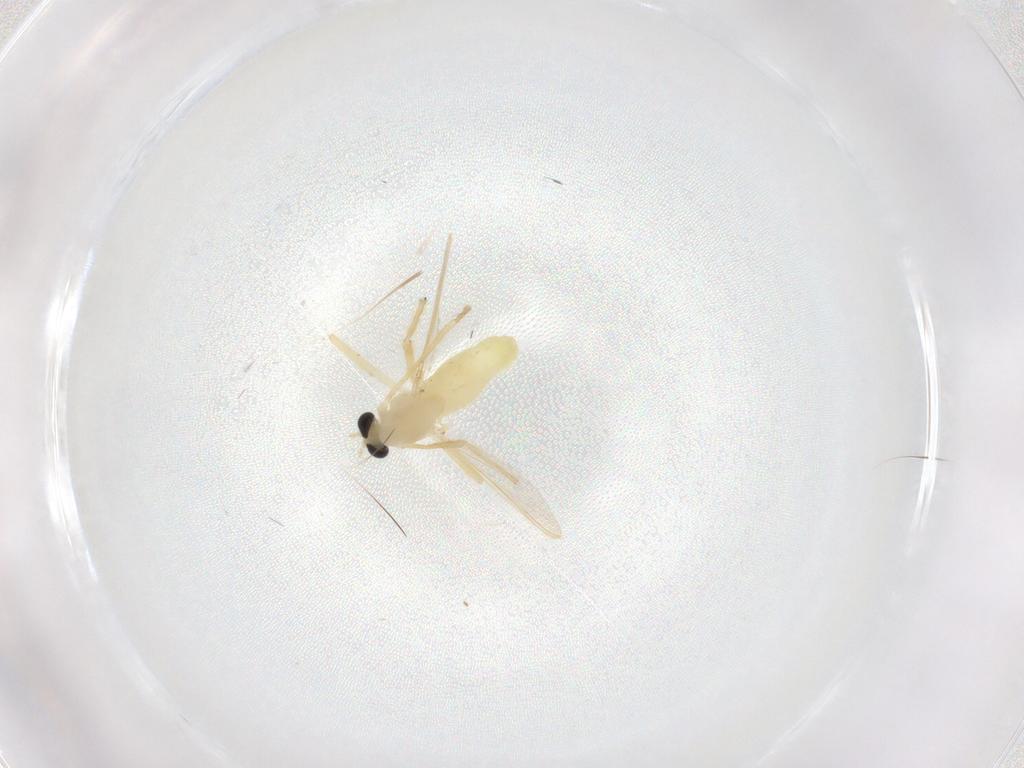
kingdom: Animalia
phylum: Arthropoda
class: Insecta
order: Diptera
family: Chironomidae
